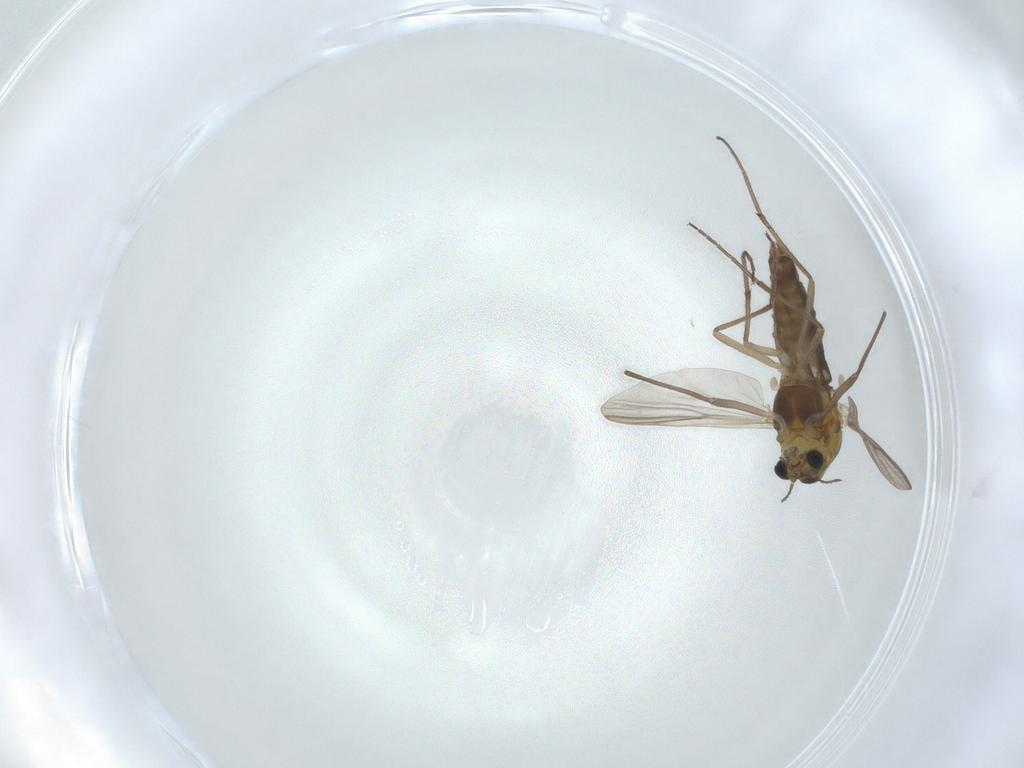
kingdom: Animalia
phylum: Arthropoda
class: Insecta
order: Diptera
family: Chironomidae
